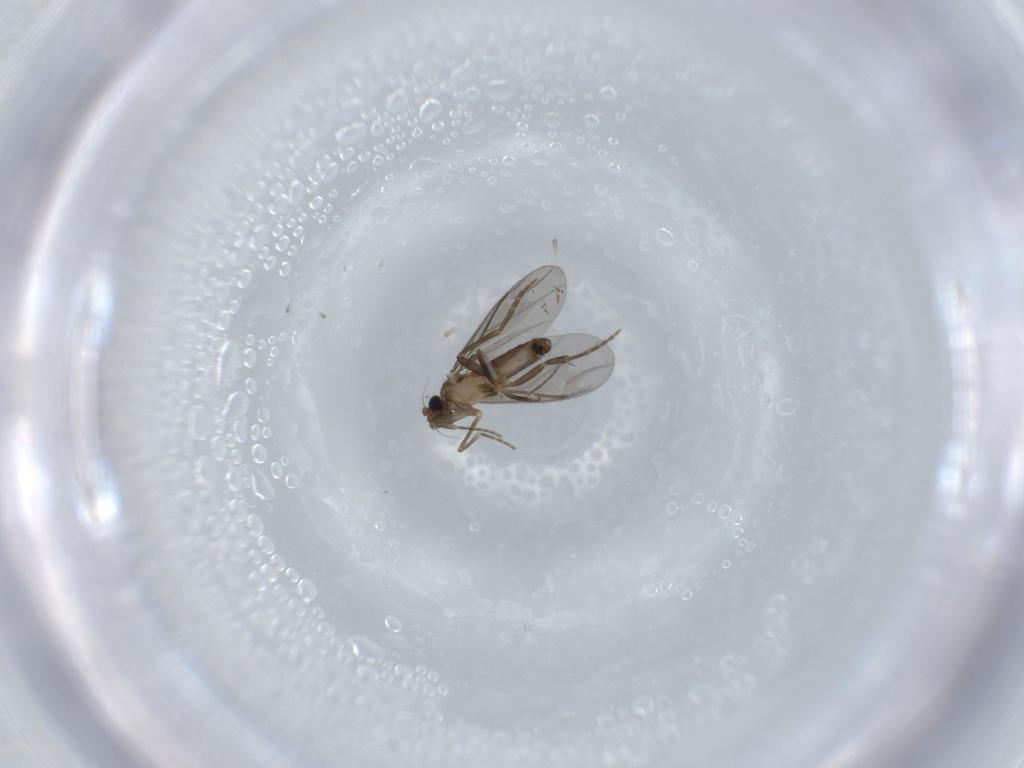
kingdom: Animalia
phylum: Arthropoda
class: Insecta
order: Diptera
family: Phoridae
